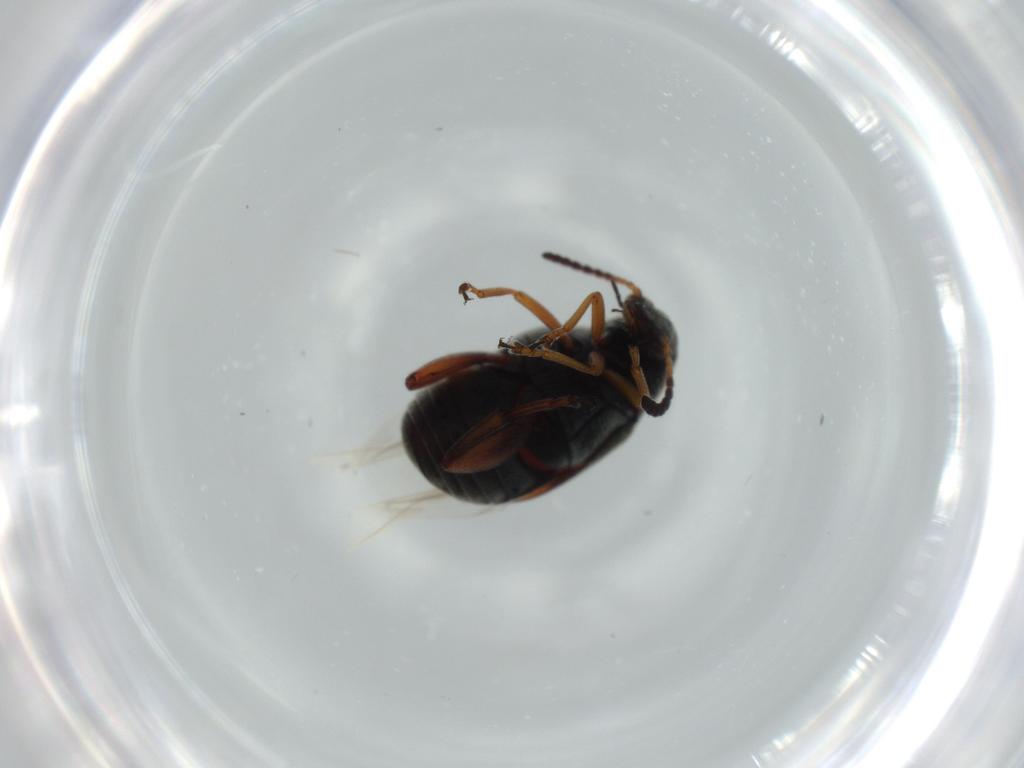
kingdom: Animalia
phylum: Arthropoda
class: Insecta
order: Coleoptera
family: Chrysomelidae
